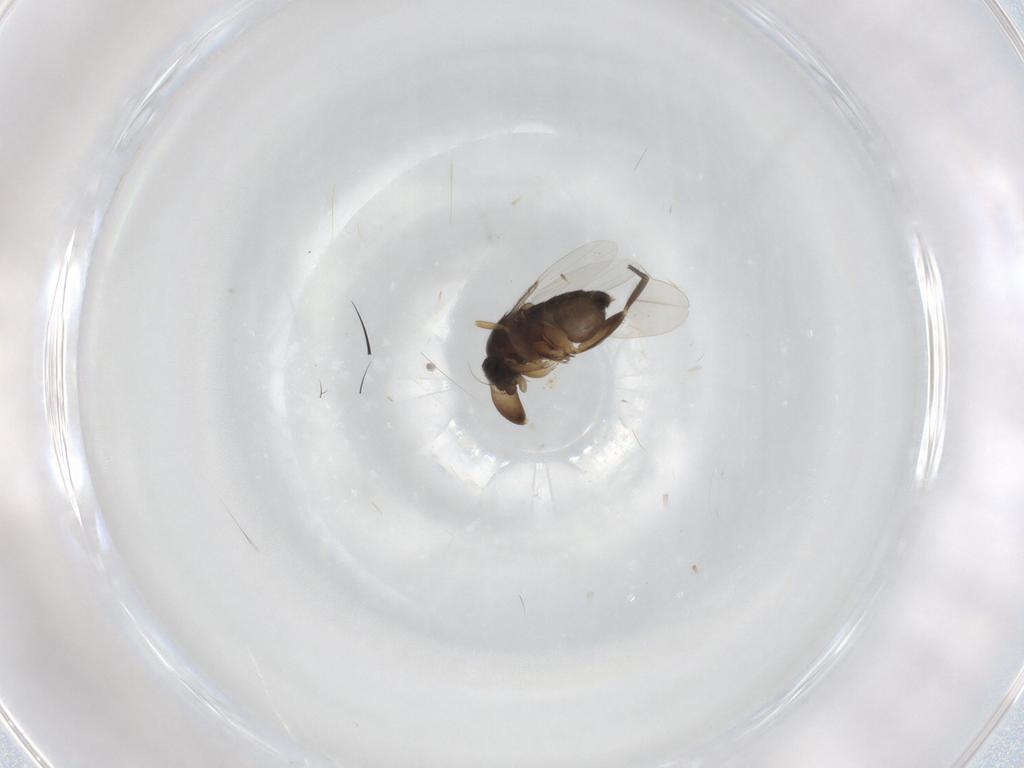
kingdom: Animalia
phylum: Arthropoda
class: Insecta
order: Diptera
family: Phoridae
